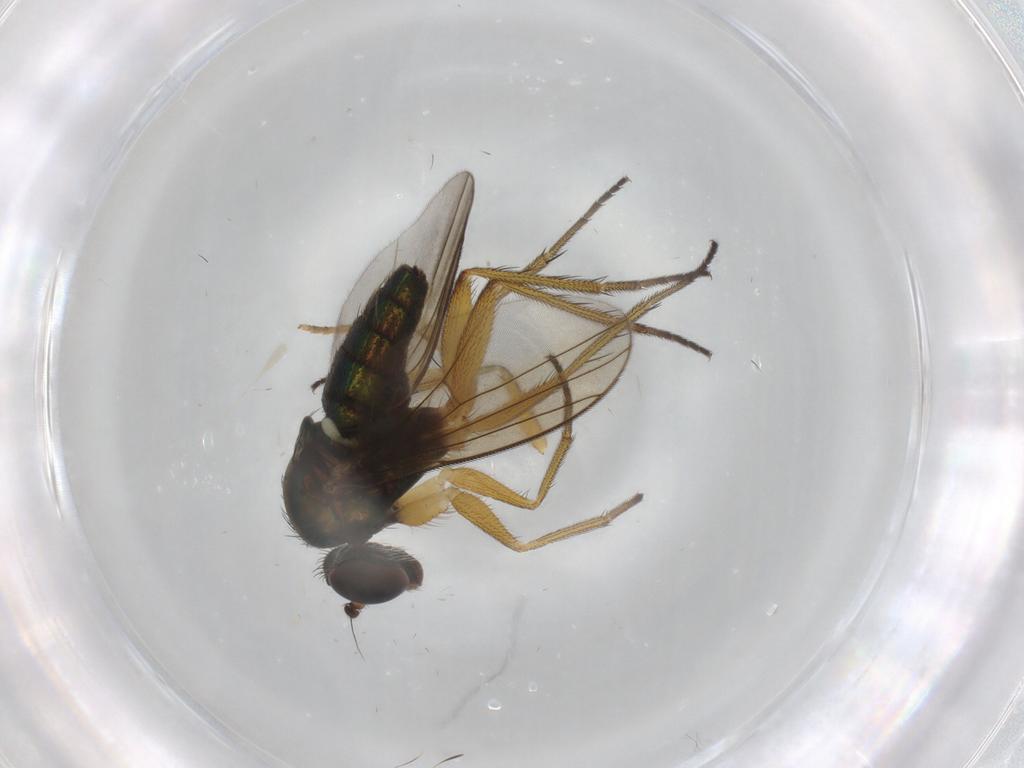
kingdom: Animalia
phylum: Arthropoda
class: Insecta
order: Diptera
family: Dolichopodidae
